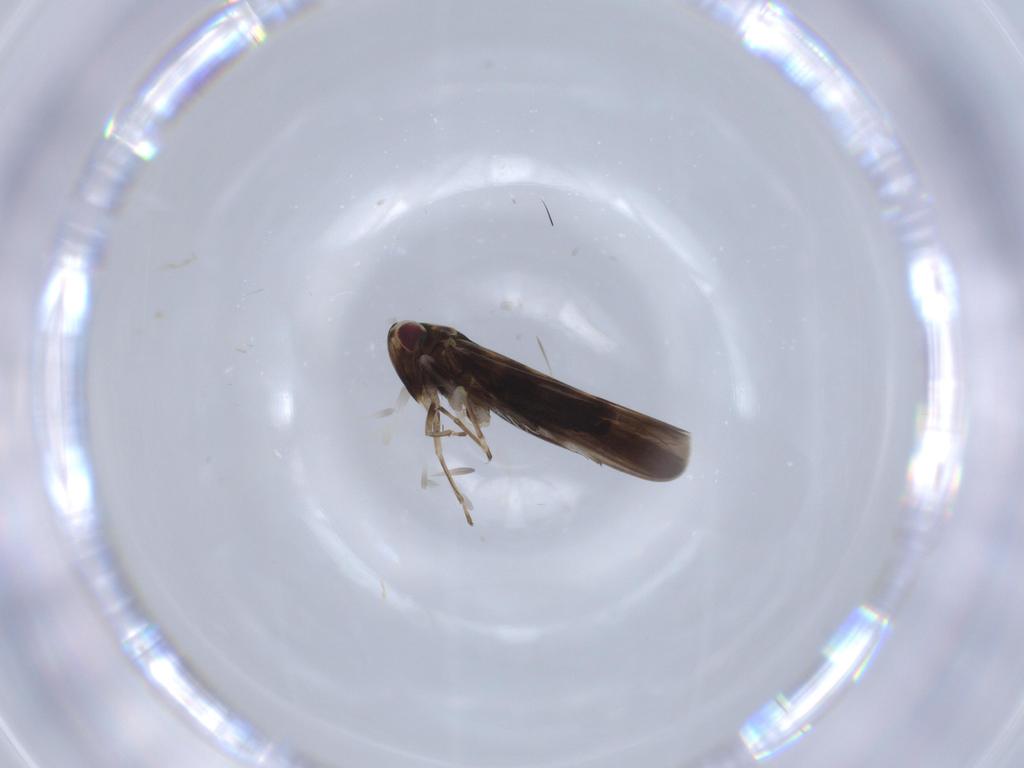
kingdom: Animalia
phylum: Arthropoda
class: Insecta
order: Hemiptera
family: Cicadellidae
